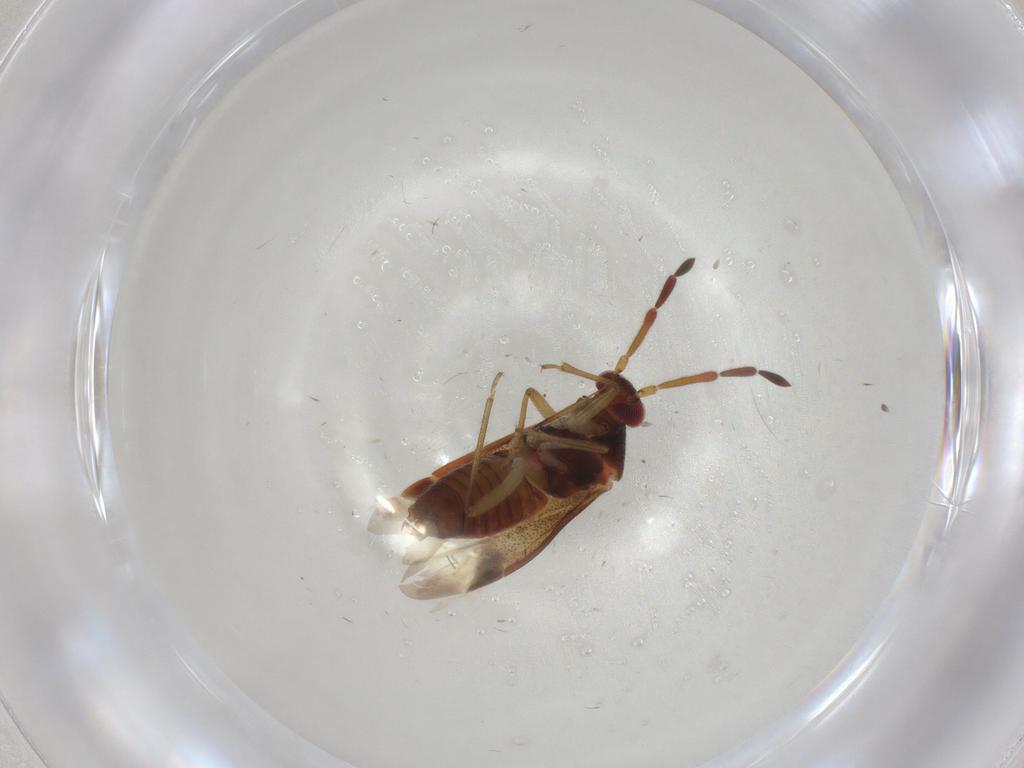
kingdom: Animalia
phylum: Arthropoda
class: Insecta
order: Hemiptera
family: Miridae
